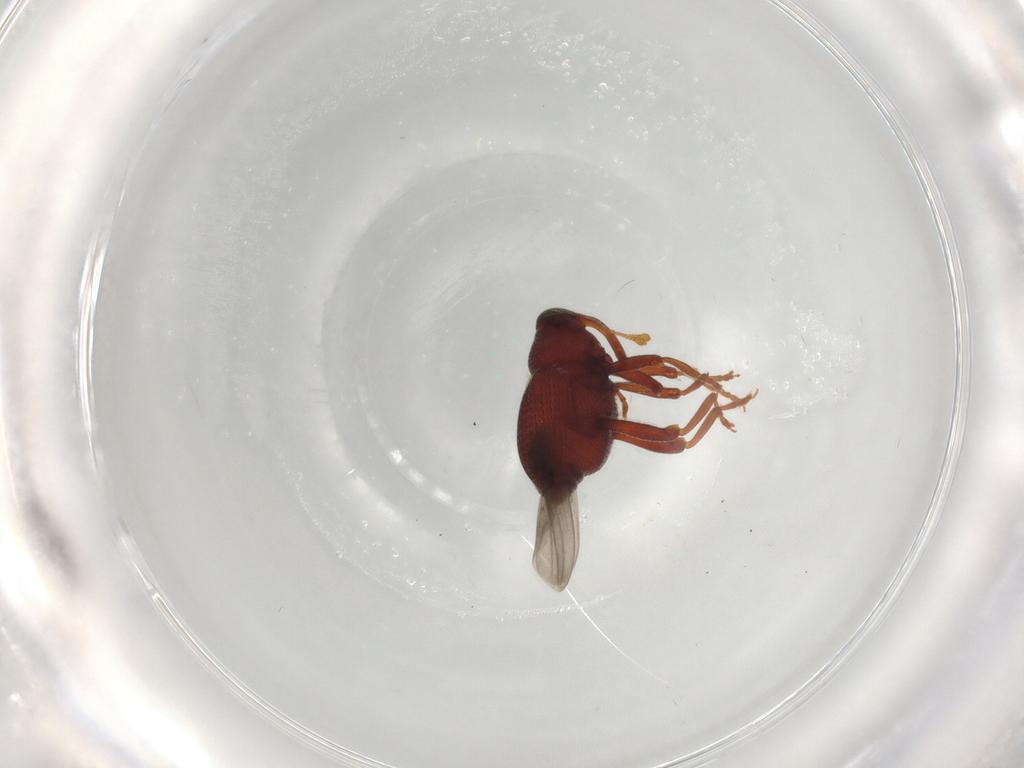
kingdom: Animalia
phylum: Arthropoda
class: Insecta
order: Coleoptera
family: Curculionidae
